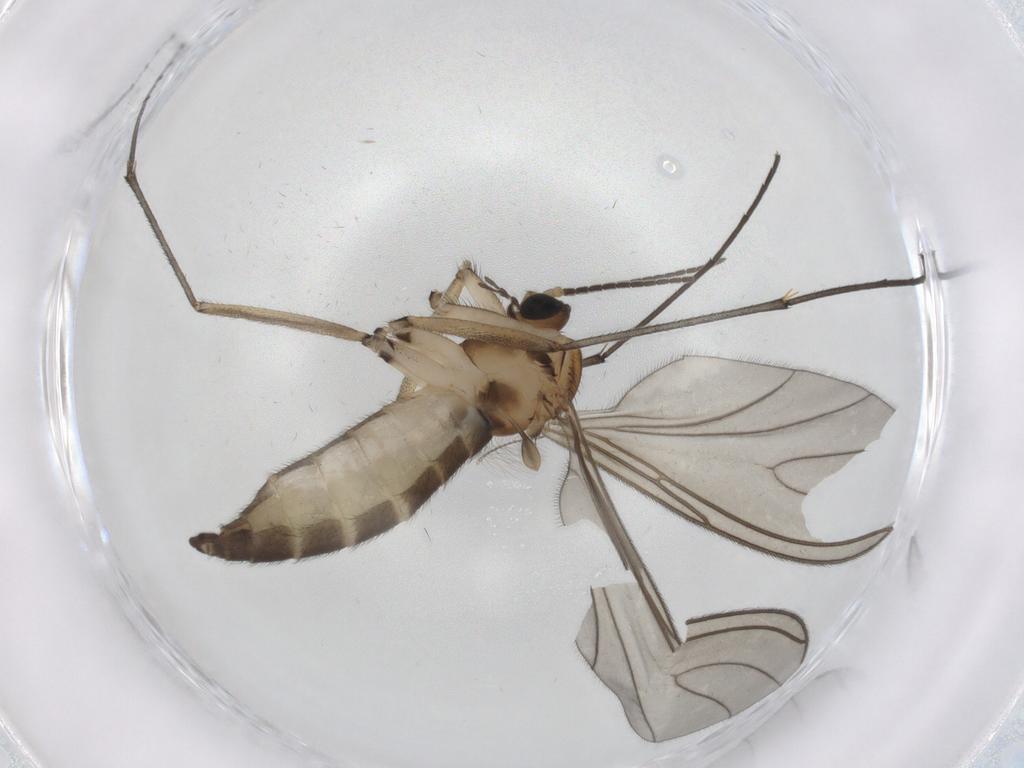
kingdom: Animalia
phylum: Arthropoda
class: Insecta
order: Diptera
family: Sciaridae
